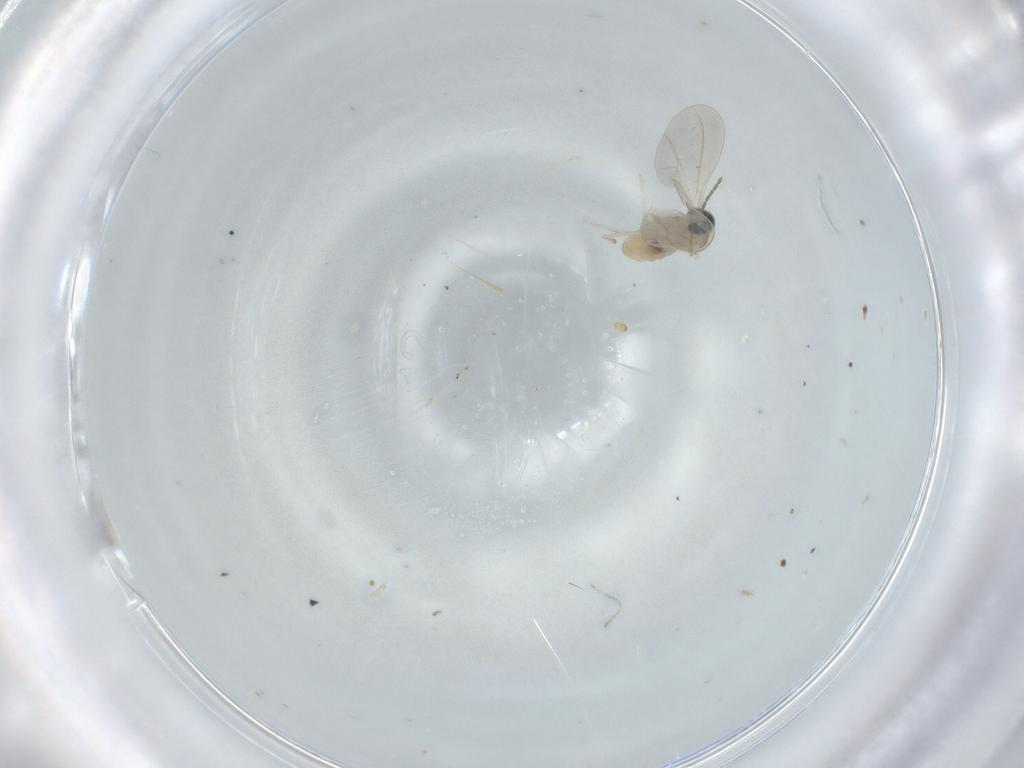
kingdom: Animalia
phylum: Arthropoda
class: Insecta
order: Diptera
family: Cecidomyiidae
